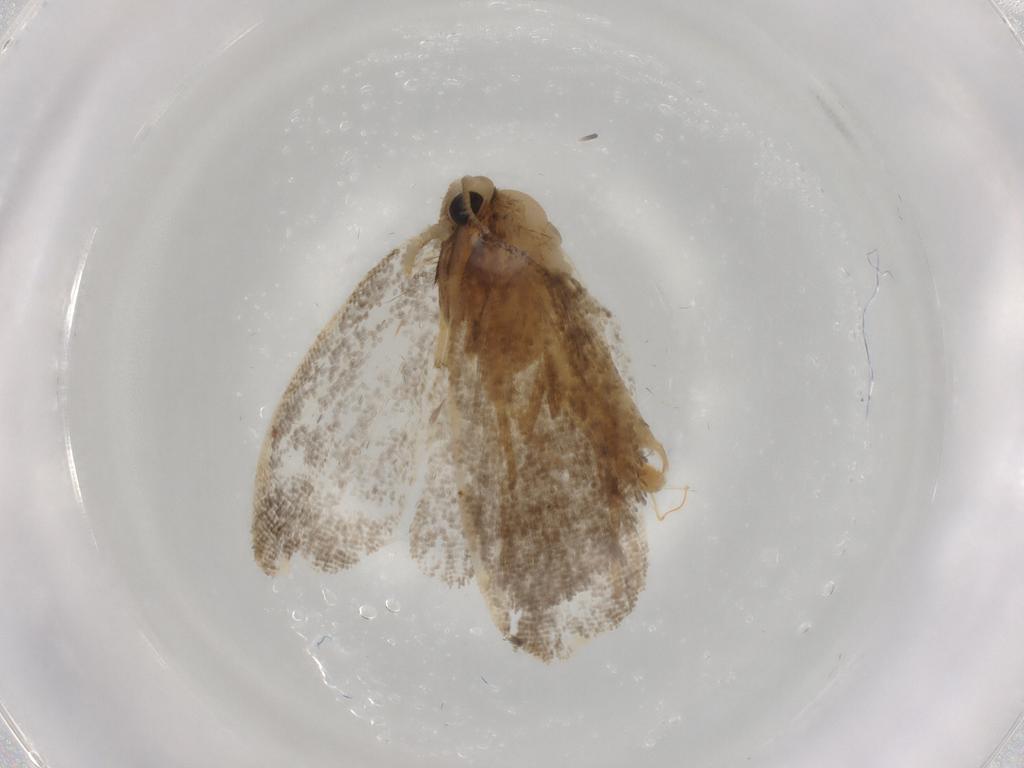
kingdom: Animalia
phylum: Arthropoda
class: Insecta
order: Lepidoptera
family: Psychidae
